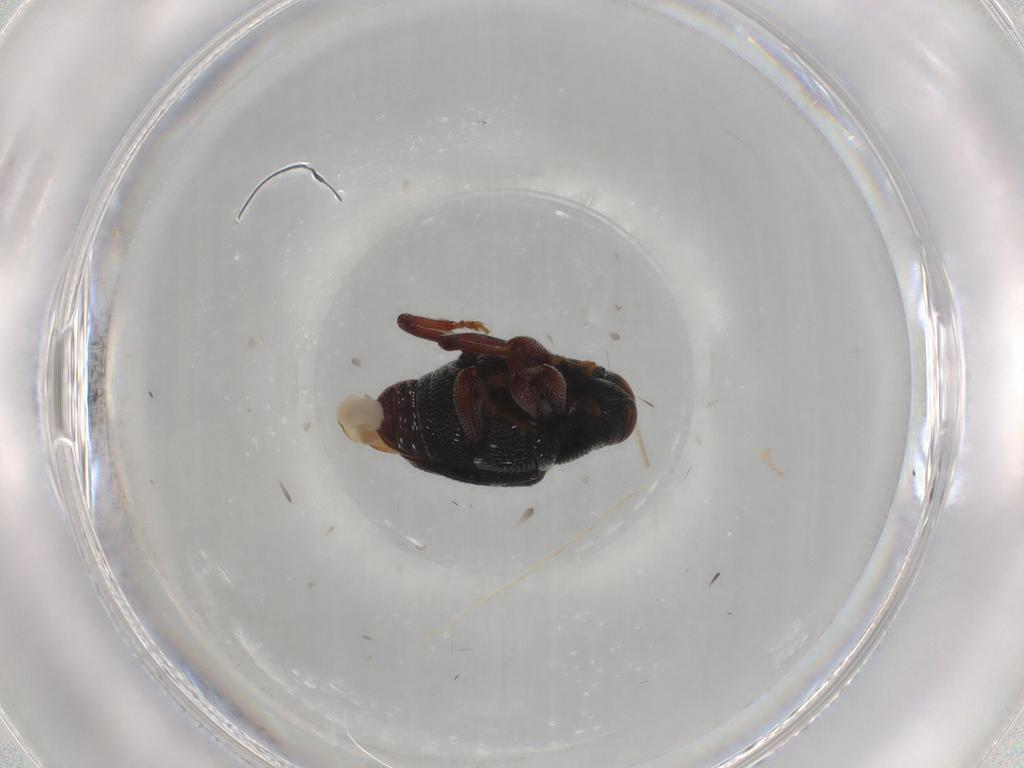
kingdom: Animalia
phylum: Arthropoda
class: Insecta
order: Coleoptera
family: Curculionidae
